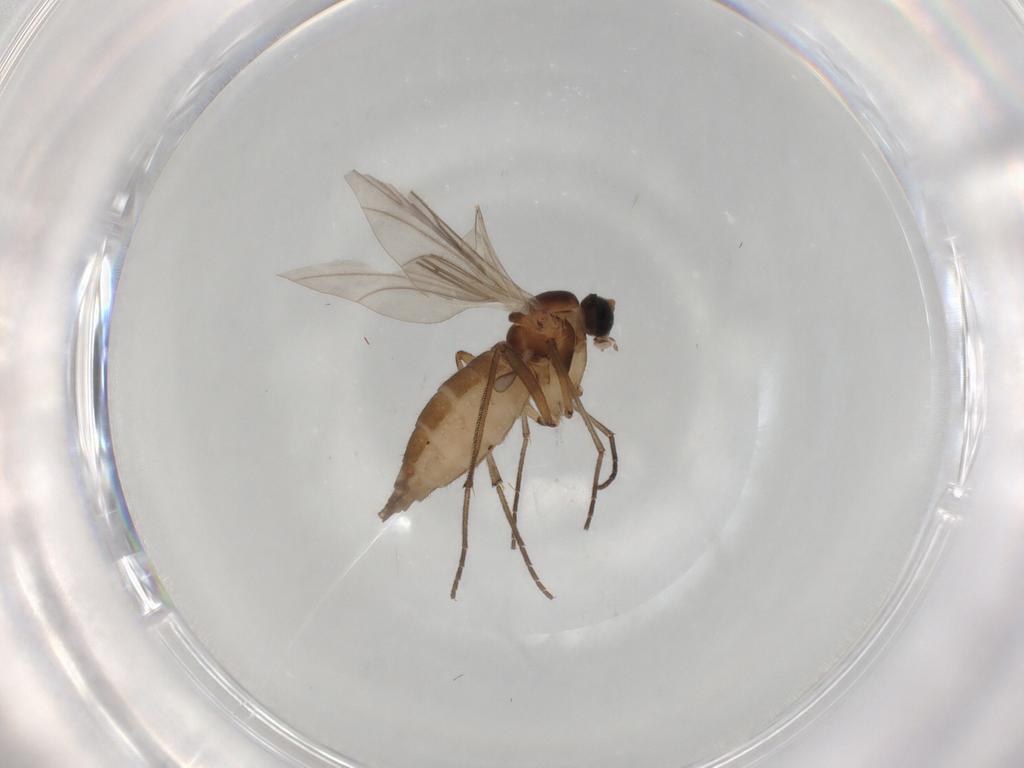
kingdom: Animalia
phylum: Arthropoda
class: Insecta
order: Diptera
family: Sciaridae
